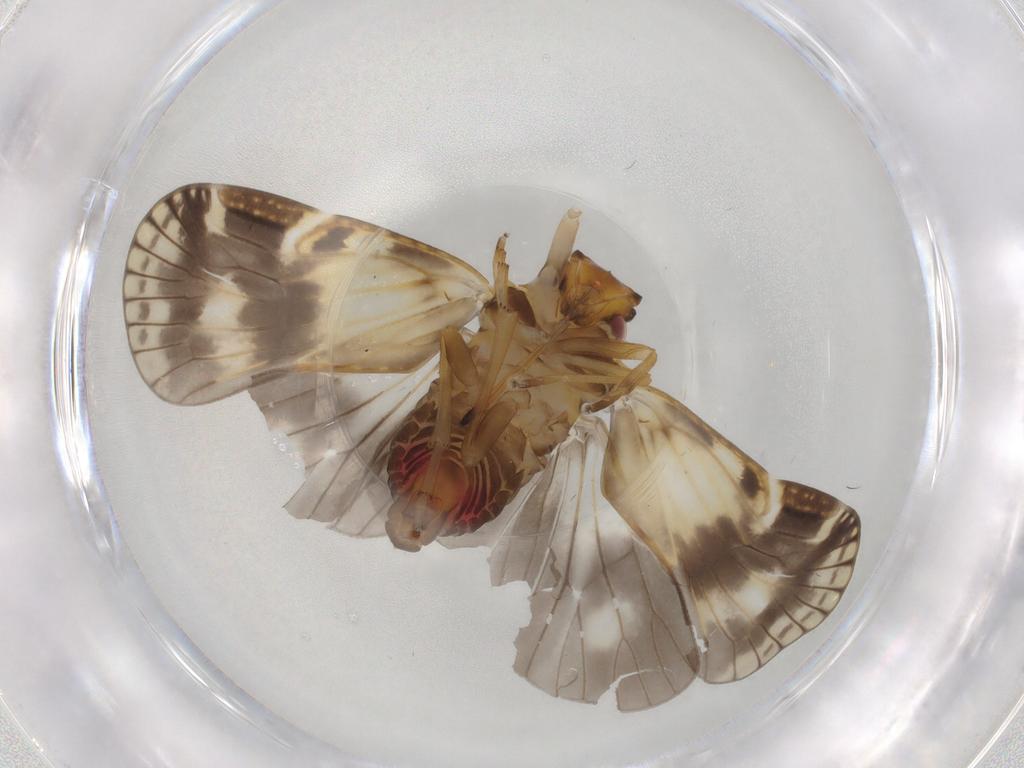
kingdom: Animalia
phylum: Arthropoda
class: Insecta
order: Hemiptera
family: Cixiidae
